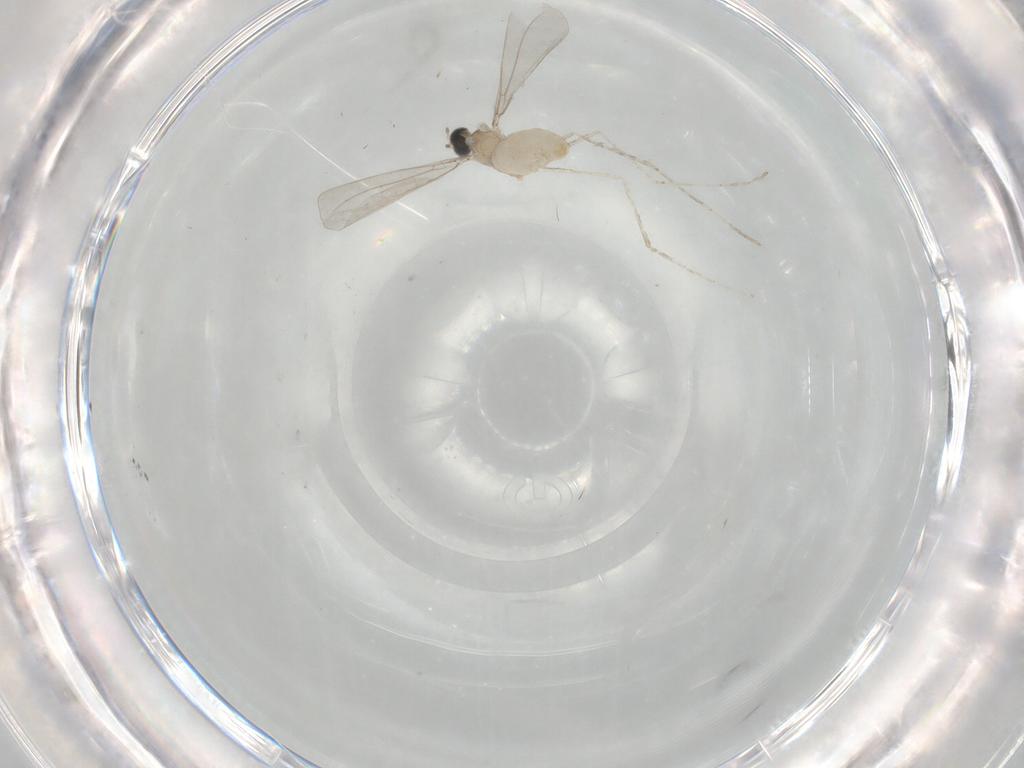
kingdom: Animalia
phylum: Arthropoda
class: Insecta
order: Diptera
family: Cecidomyiidae
